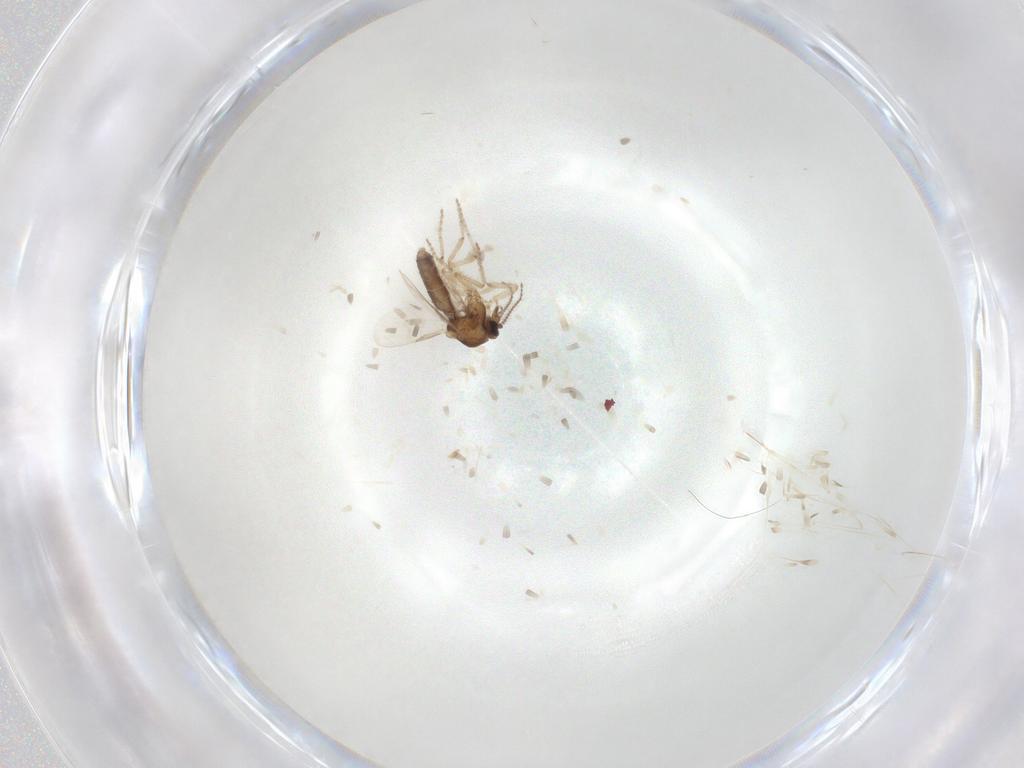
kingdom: Animalia
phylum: Arthropoda
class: Insecta
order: Diptera
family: Ceratopogonidae
